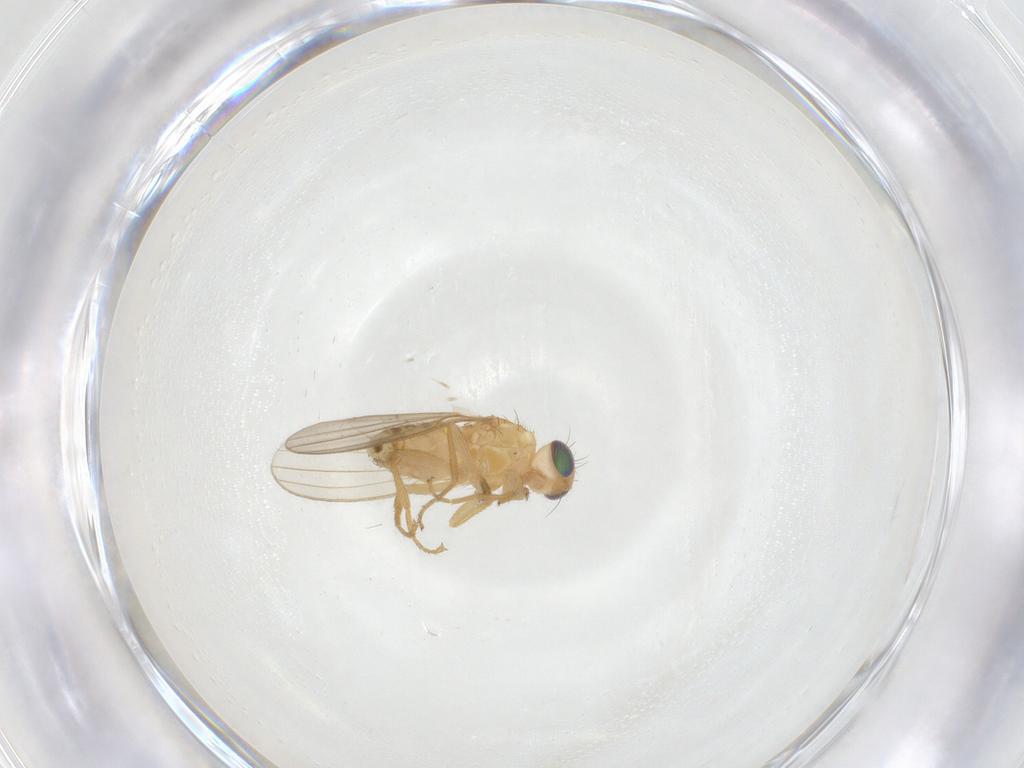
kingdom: Animalia
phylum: Arthropoda
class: Insecta
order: Diptera
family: Chyromyidae
